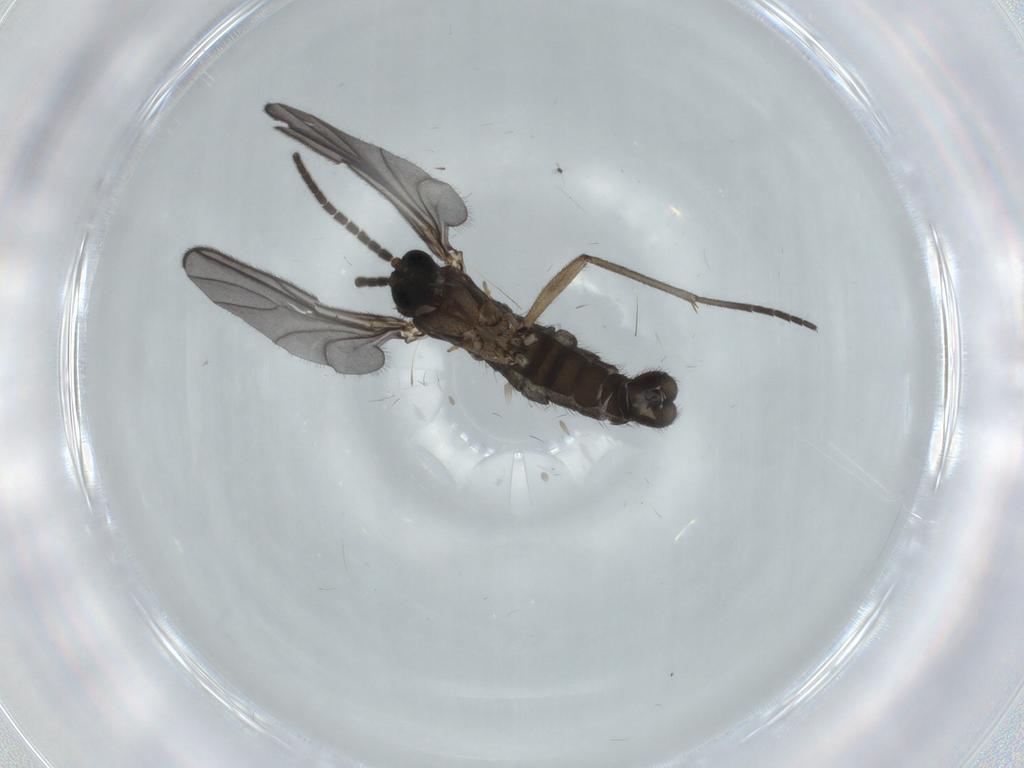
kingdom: Animalia
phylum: Arthropoda
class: Insecta
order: Diptera
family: Sciaridae
